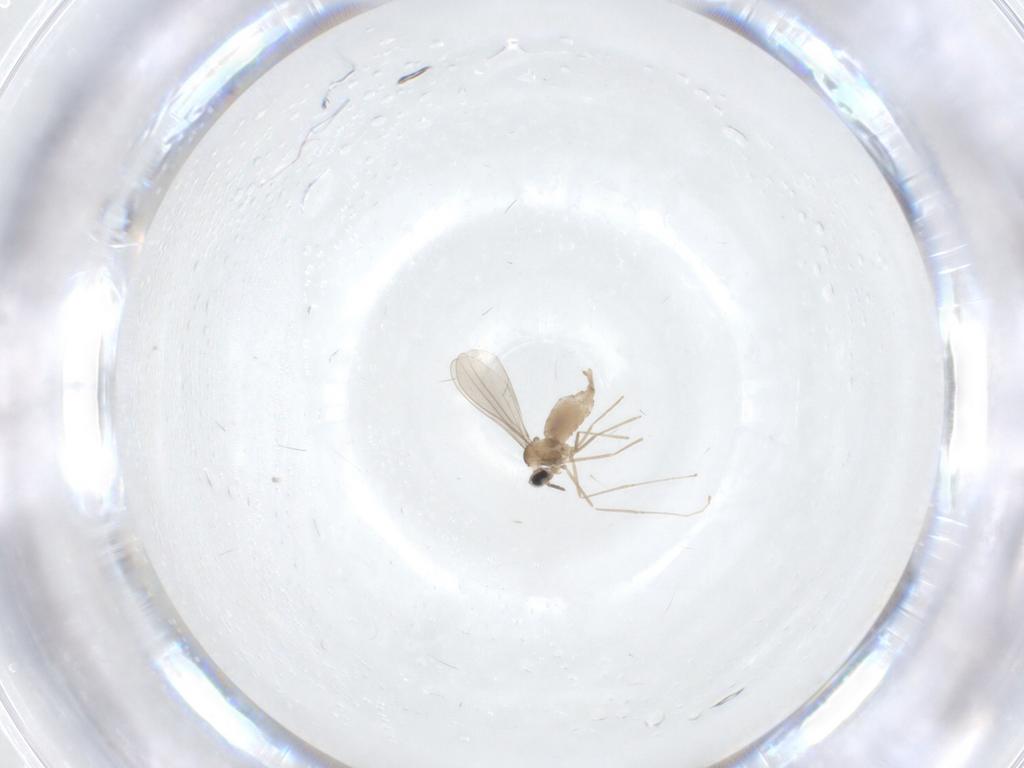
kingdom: Animalia
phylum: Arthropoda
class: Insecta
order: Diptera
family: Cecidomyiidae
